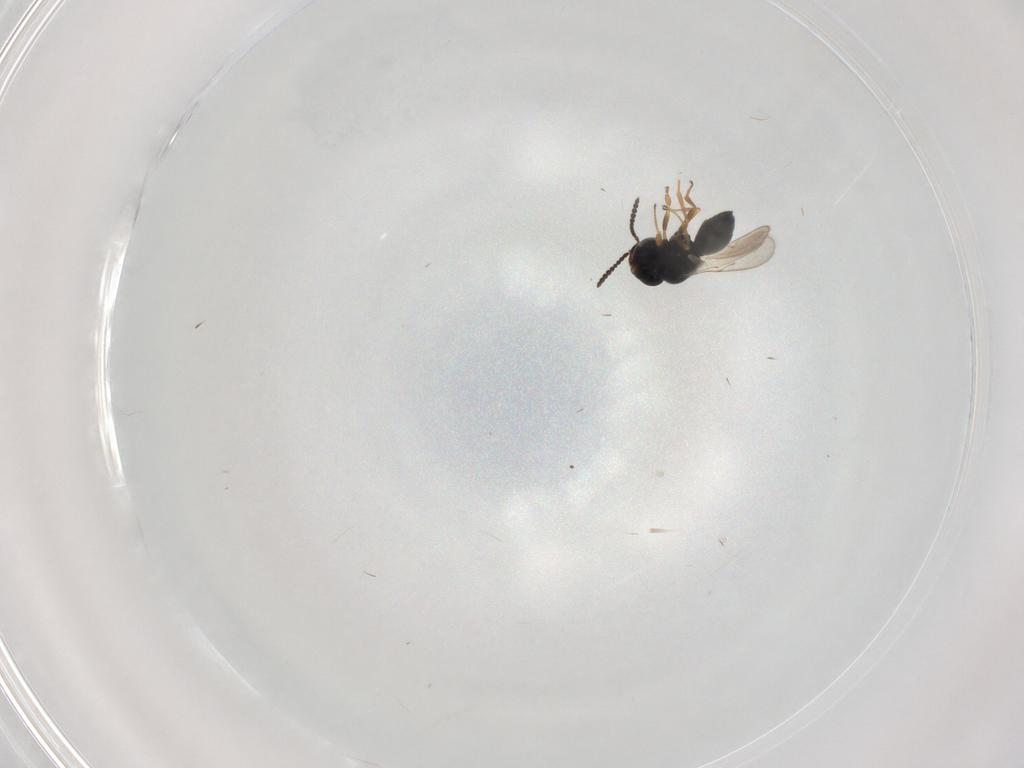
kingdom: Animalia
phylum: Arthropoda
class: Insecta
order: Hymenoptera
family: Scelionidae
